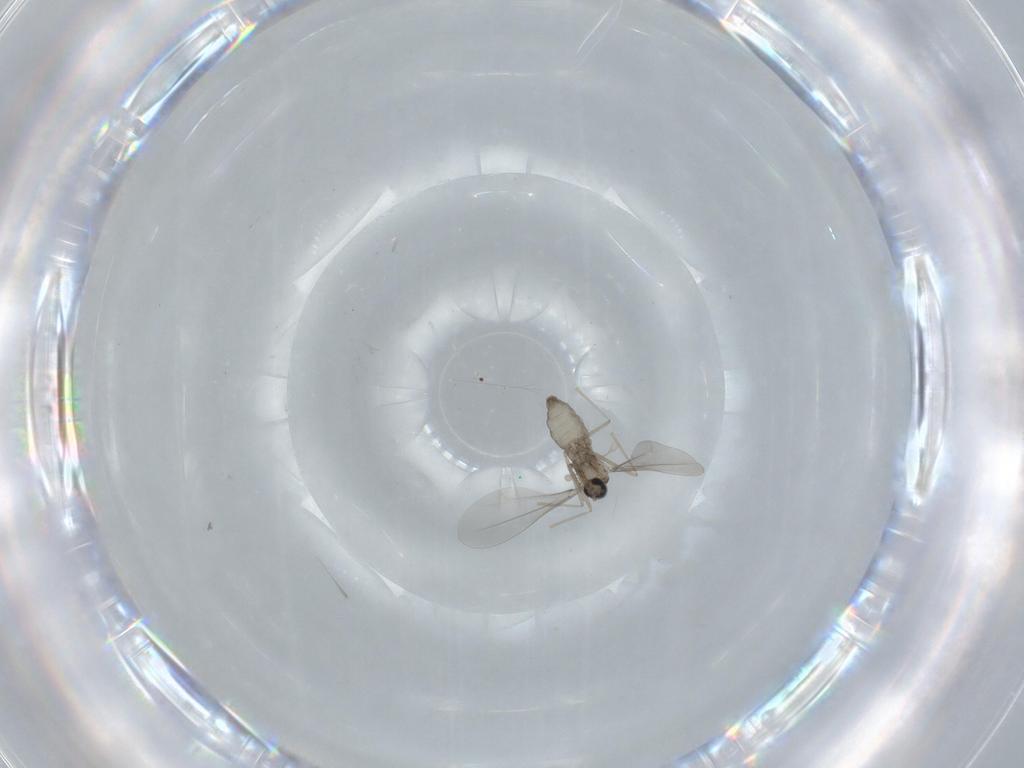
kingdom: Animalia
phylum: Arthropoda
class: Insecta
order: Diptera
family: Cecidomyiidae
